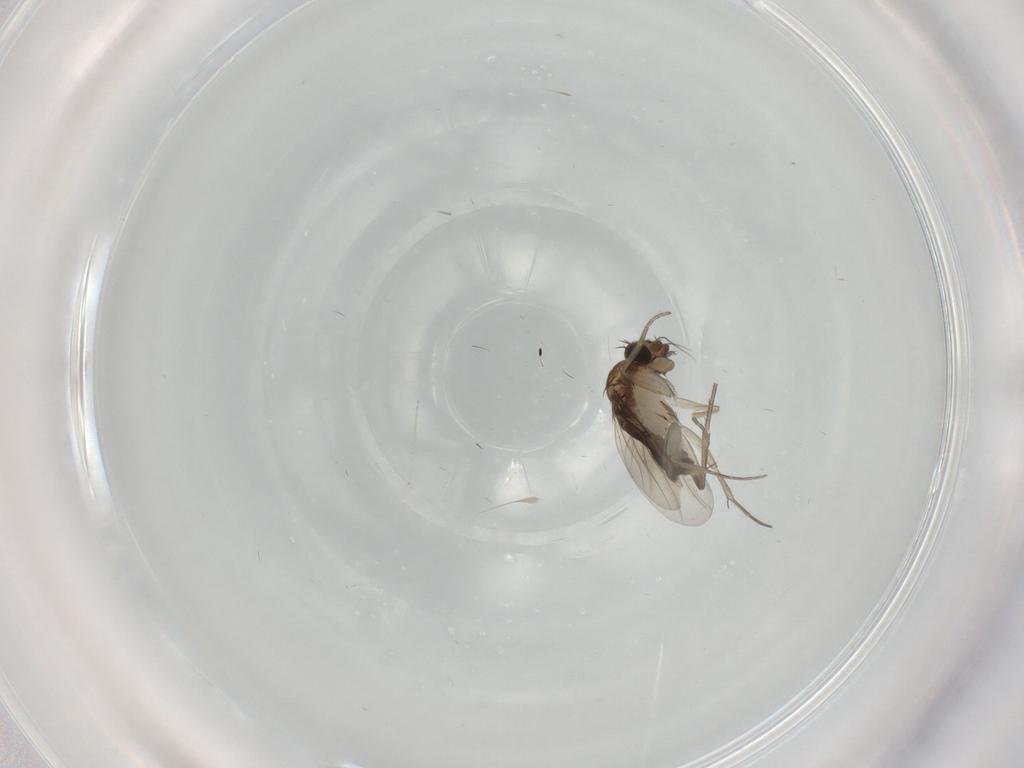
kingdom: Animalia
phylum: Arthropoda
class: Insecta
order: Diptera
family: Phoridae
